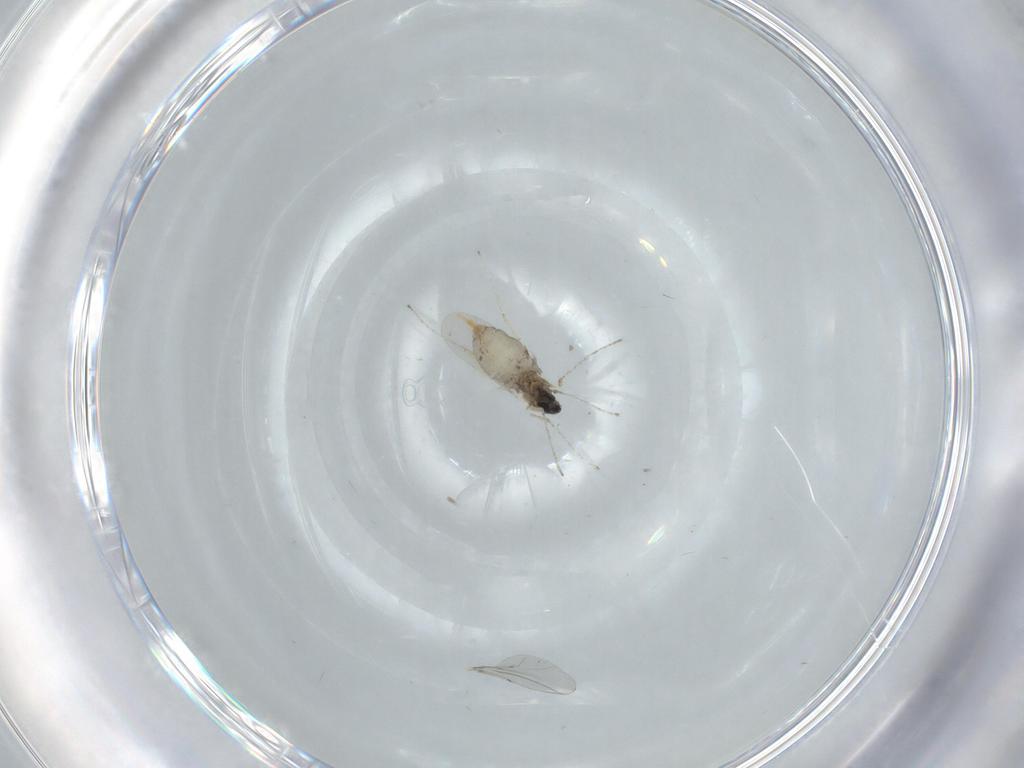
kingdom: Animalia
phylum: Arthropoda
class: Insecta
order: Diptera
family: Cecidomyiidae
